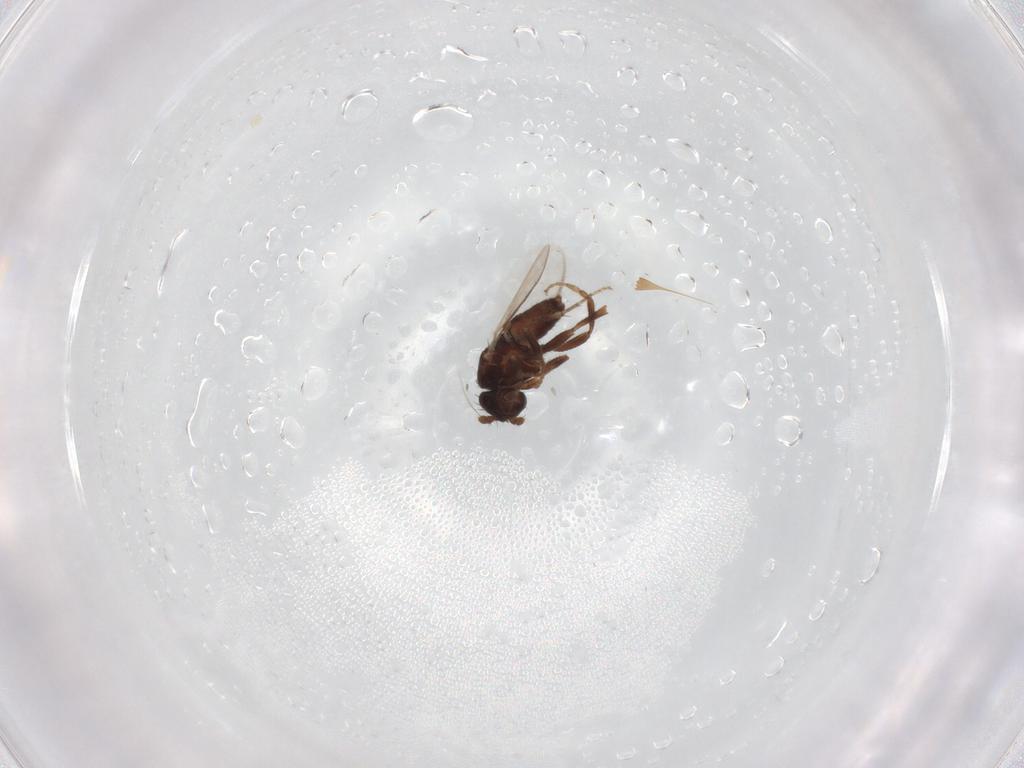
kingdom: Animalia
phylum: Arthropoda
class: Insecta
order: Diptera
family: Sphaeroceridae
